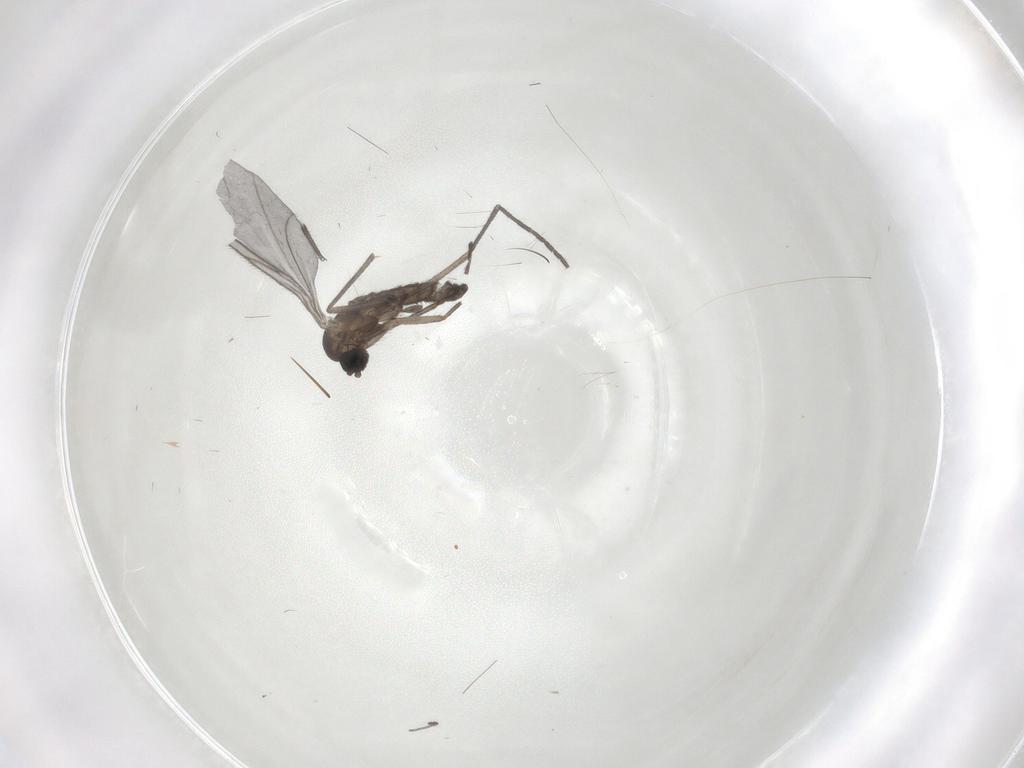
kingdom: Animalia
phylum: Arthropoda
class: Insecta
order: Diptera
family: Sciaridae
